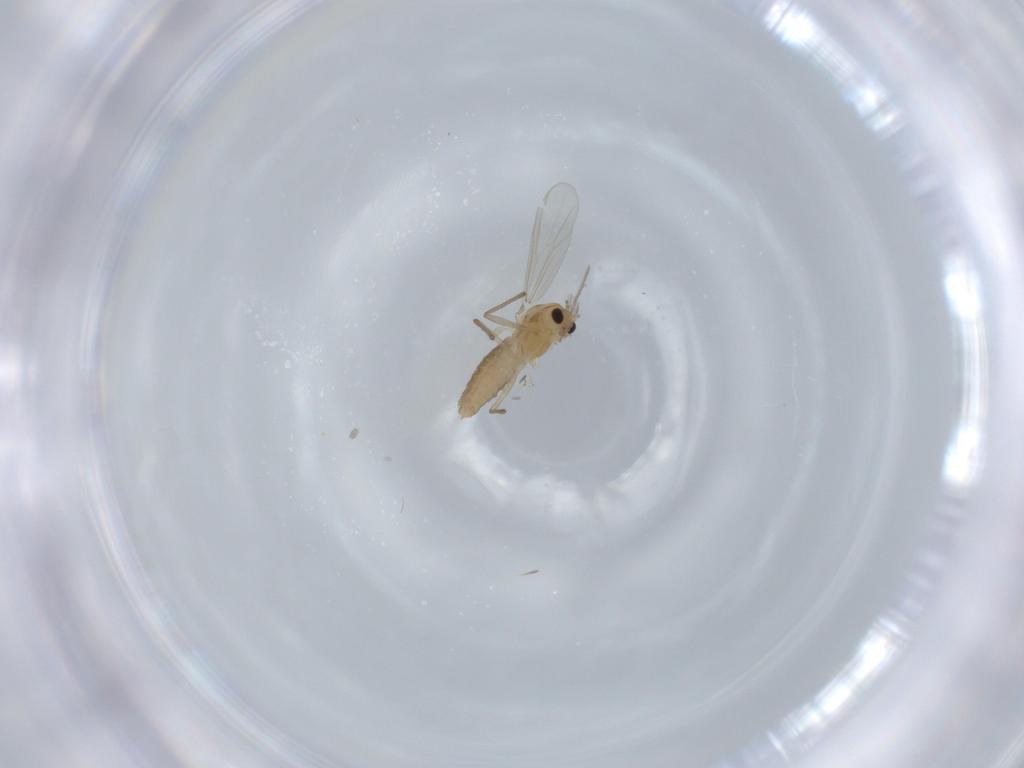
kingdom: Animalia
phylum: Arthropoda
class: Insecta
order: Diptera
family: Chironomidae
